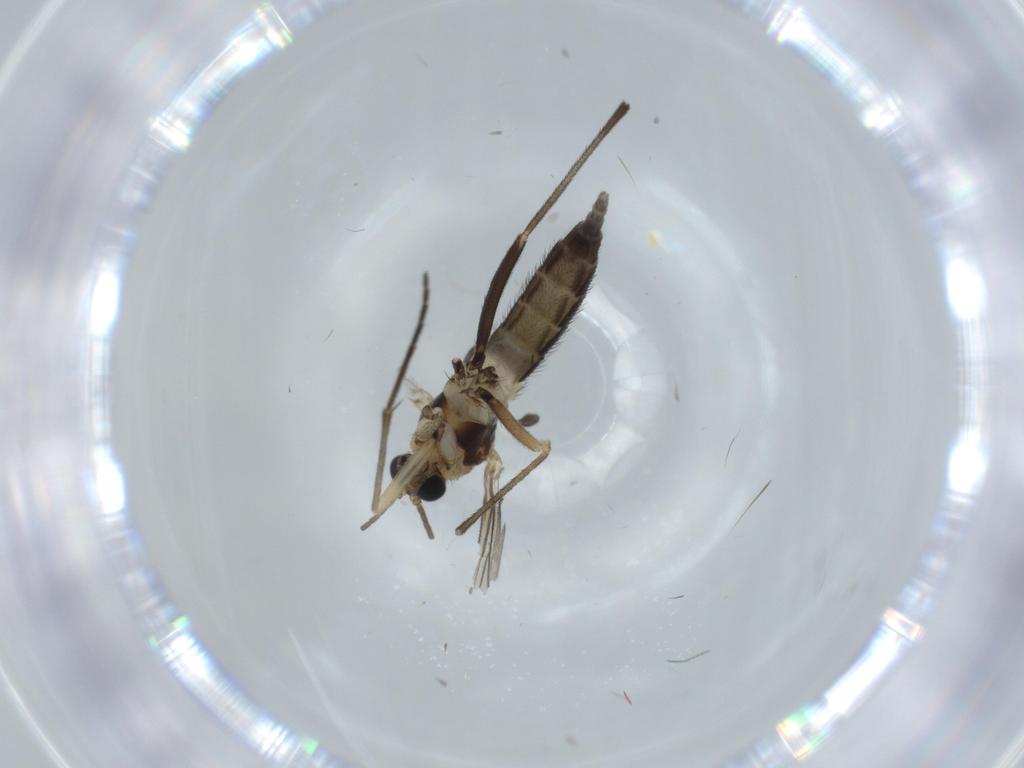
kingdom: Animalia
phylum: Arthropoda
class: Insecta
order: Diptera
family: Sciaridae
